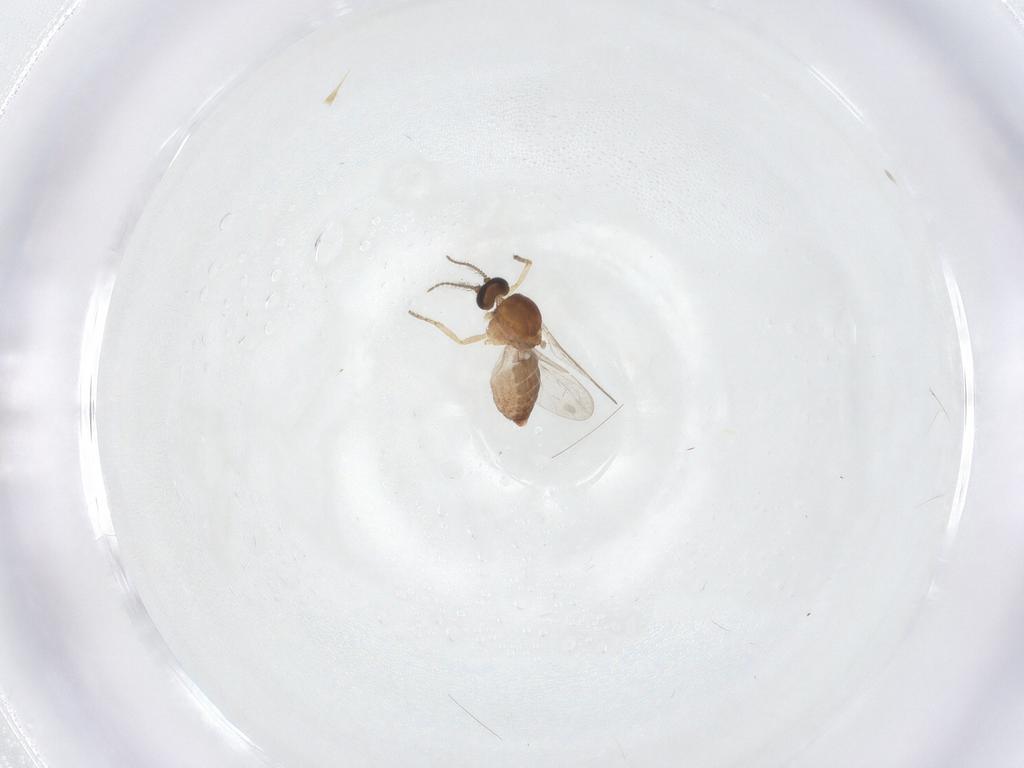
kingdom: Animalia
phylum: Arthropoda
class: Insecta
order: Diptera
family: Ceratopogonidae
